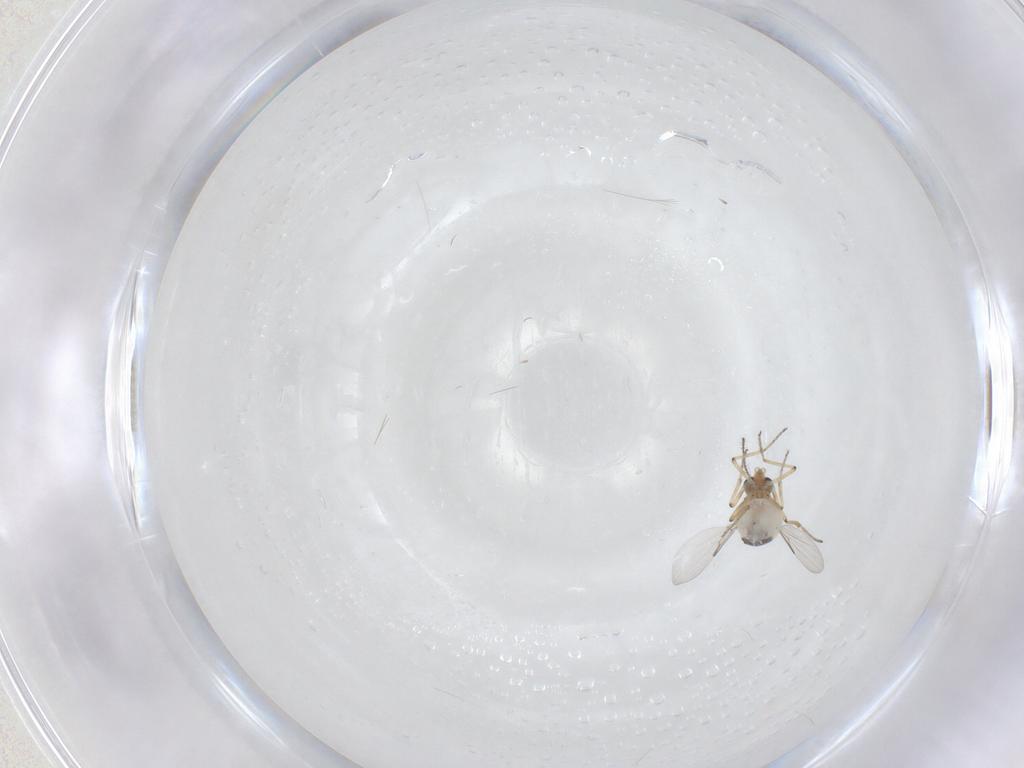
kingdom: Animalia
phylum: Arthropoda
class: Insecta
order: Diptera
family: Ceratopogonidae
